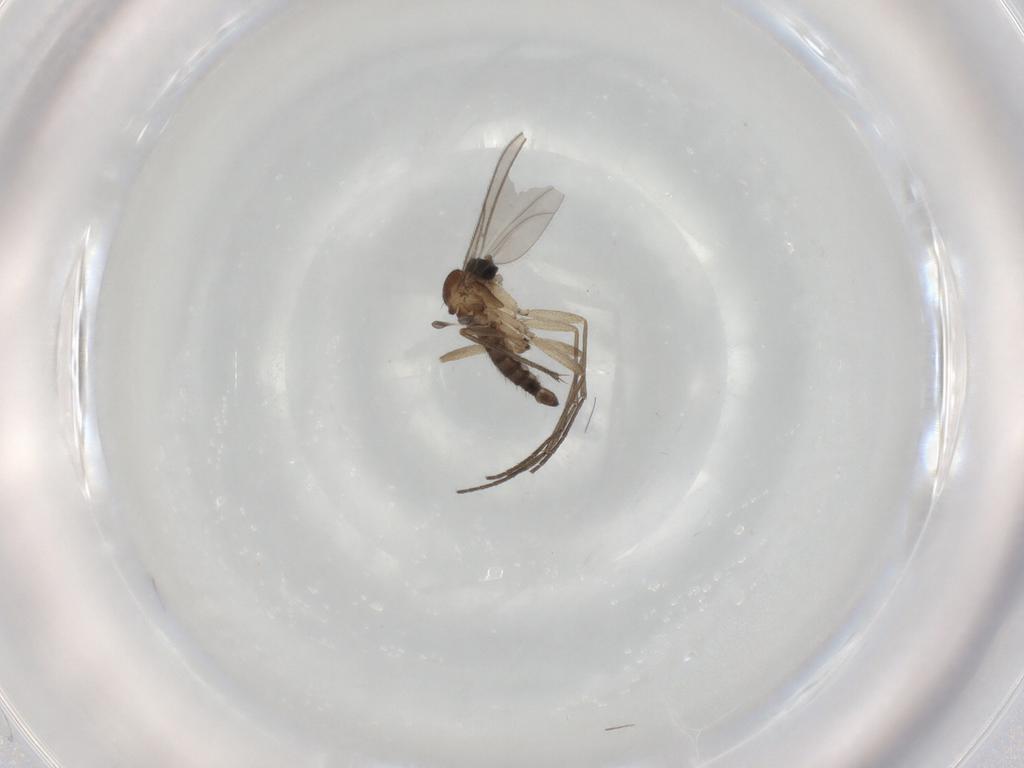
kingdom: Animalia
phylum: Arthropoda
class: Insecta
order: Diptera
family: Sciaridae
